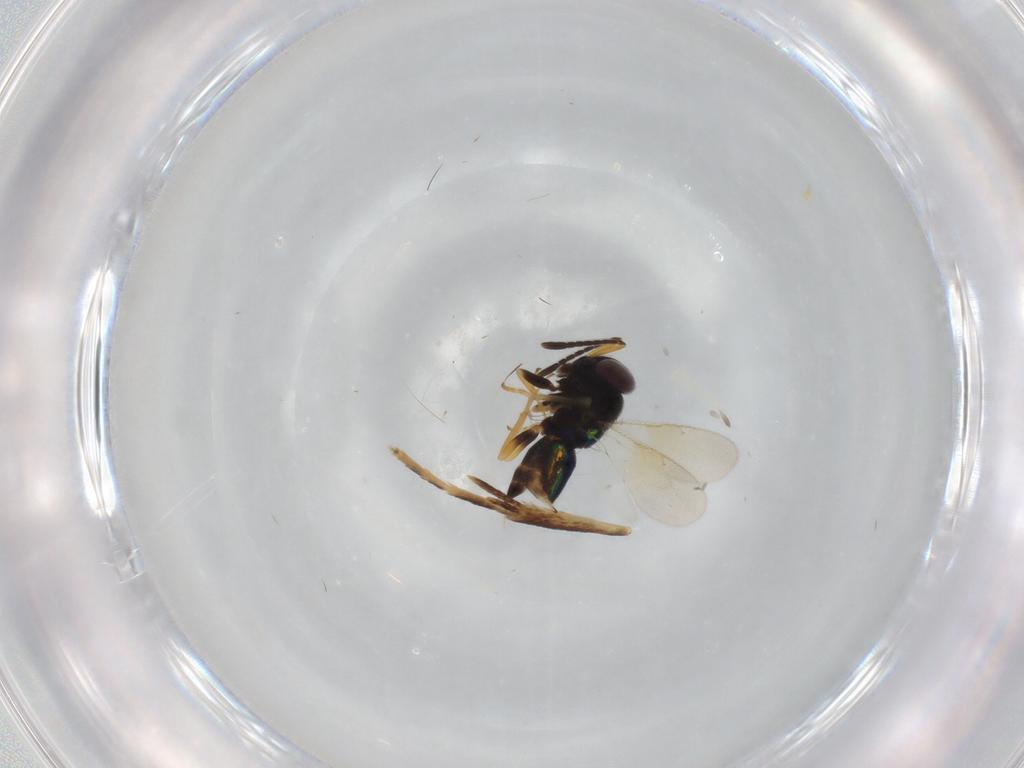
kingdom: Animalia
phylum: Arthropoda
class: Insecta
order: Hymenoptera
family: Encyrtidae
